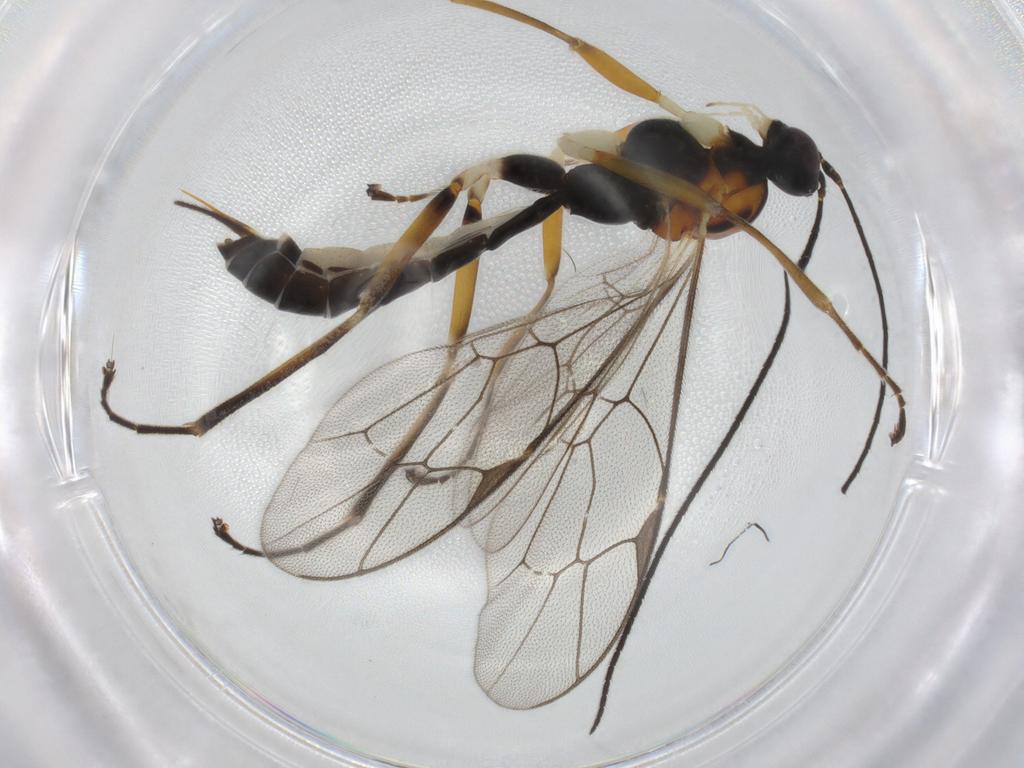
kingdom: Animalia
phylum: Arthropoda
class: Insecta
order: Hymenoptera
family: Ichneumonidae
